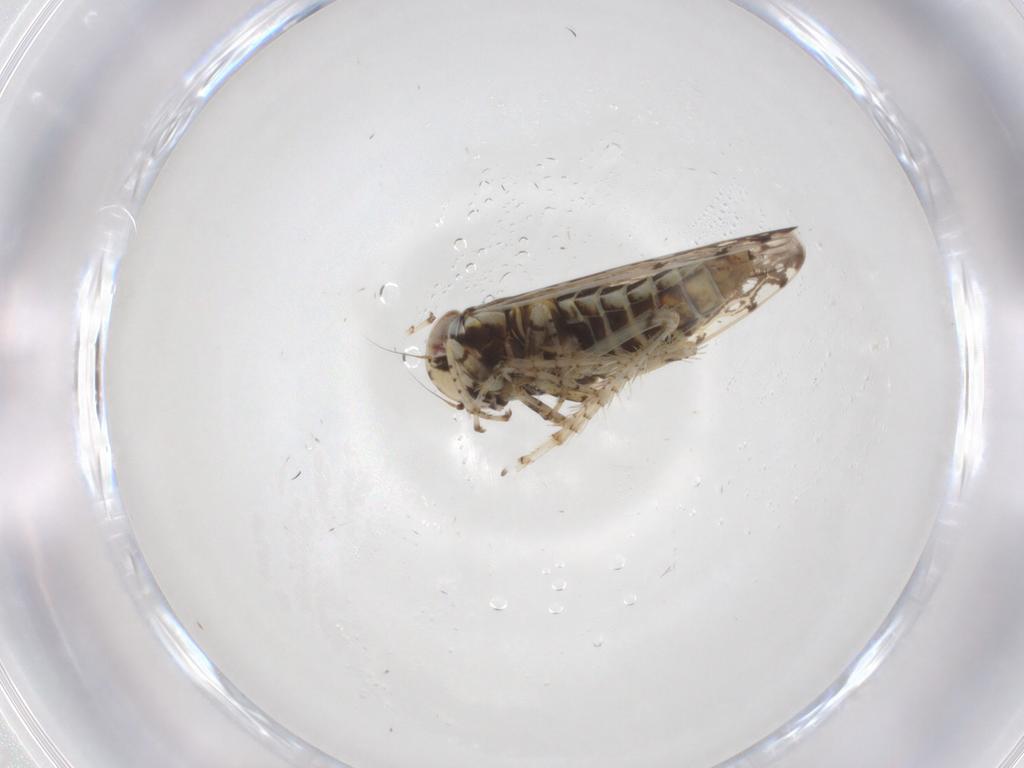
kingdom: Animalia
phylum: Arthropoda
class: Insecta
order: Hemiptera
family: Cicadellidae
